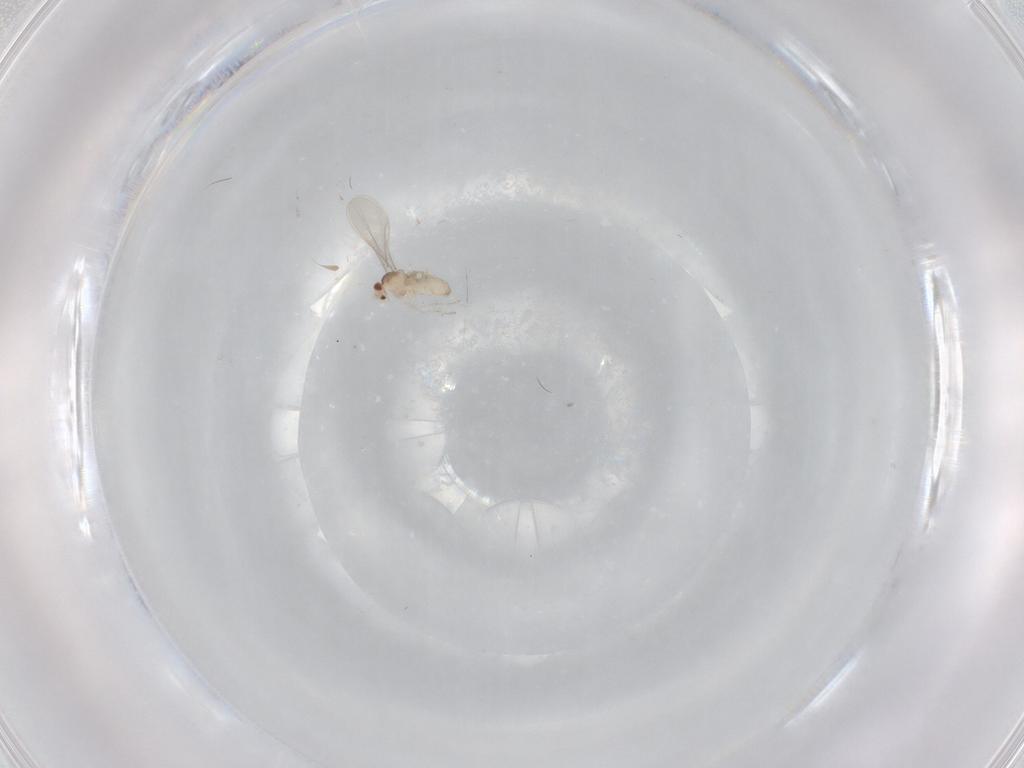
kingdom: Animalia
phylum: Arthropoda
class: Insecta
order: Diptera
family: Cecidomyiidae
